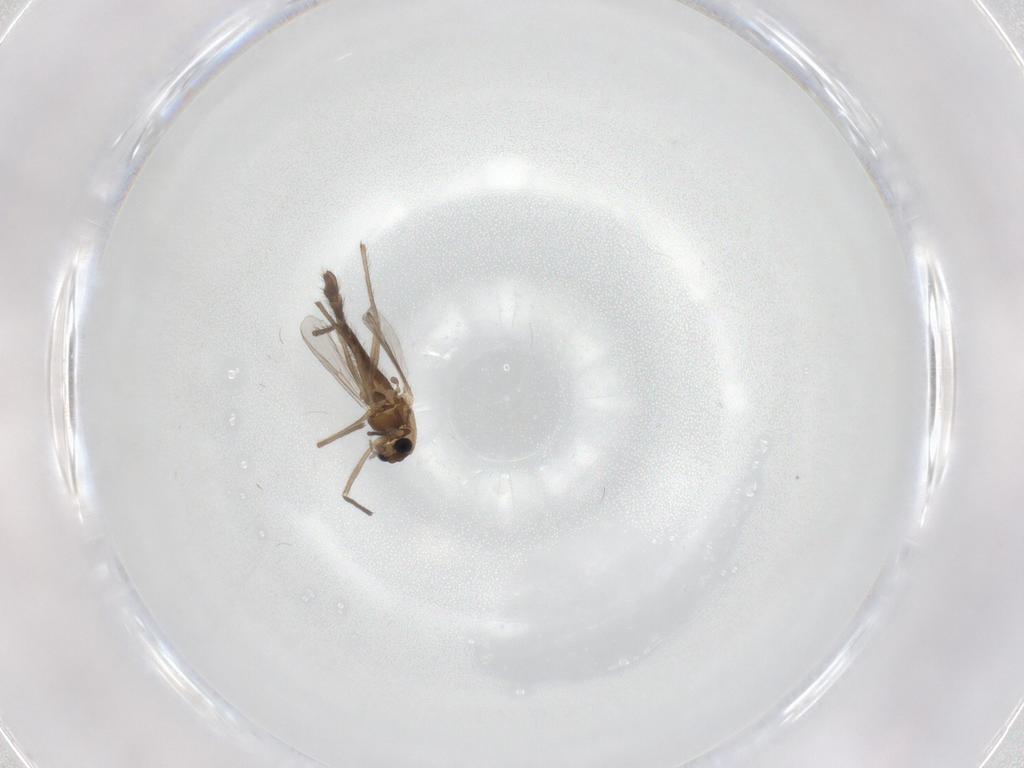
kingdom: Animalia
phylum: Arthropoda
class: Insecta
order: Diptera
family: Chironomidae
